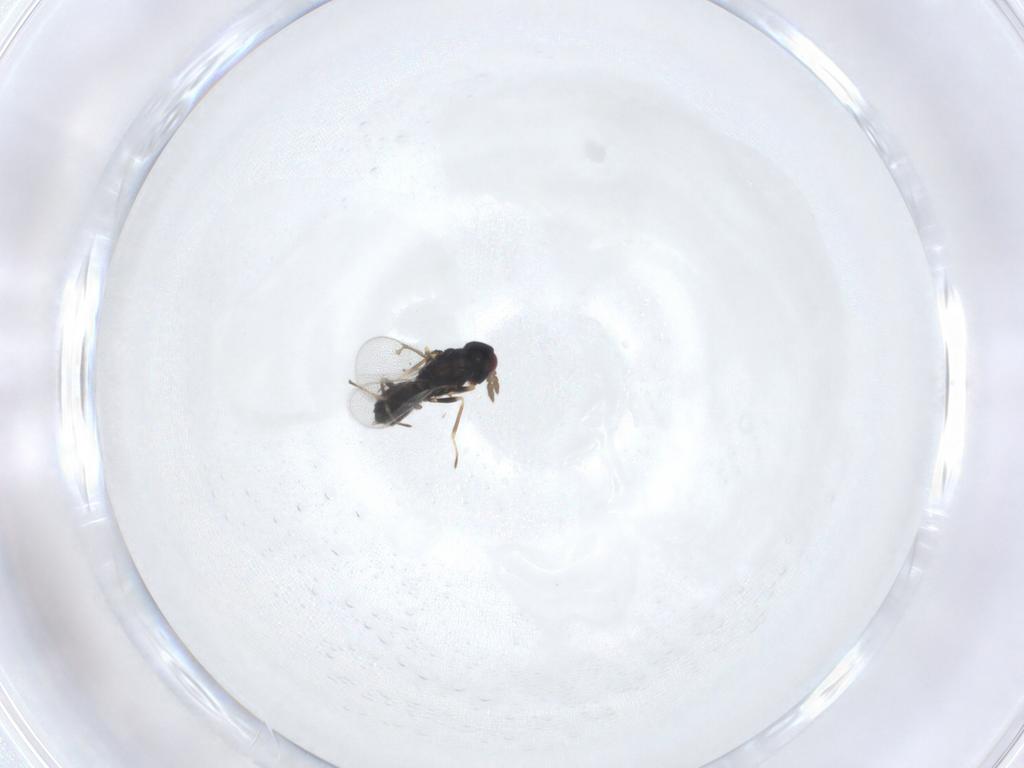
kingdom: Animalia
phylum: Arthropoda
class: Insecta
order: Hymenoptera
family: Eulophidae
